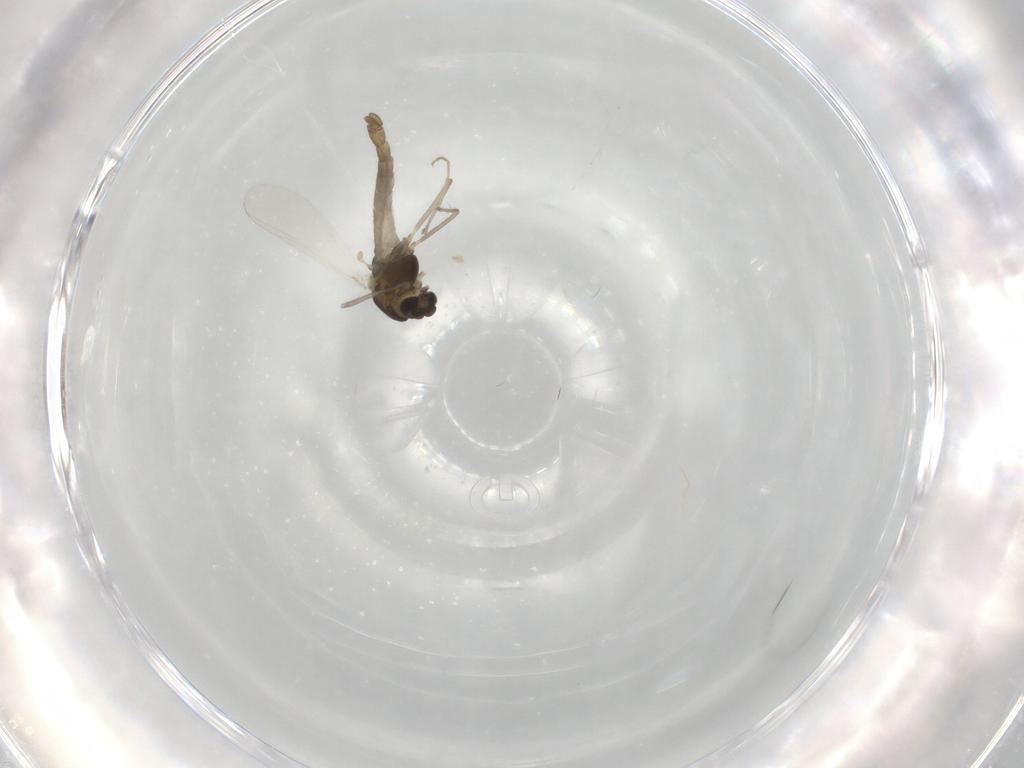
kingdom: Animalia
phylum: Arthropoda
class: Insecta
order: Diptera
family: Chironomidae
